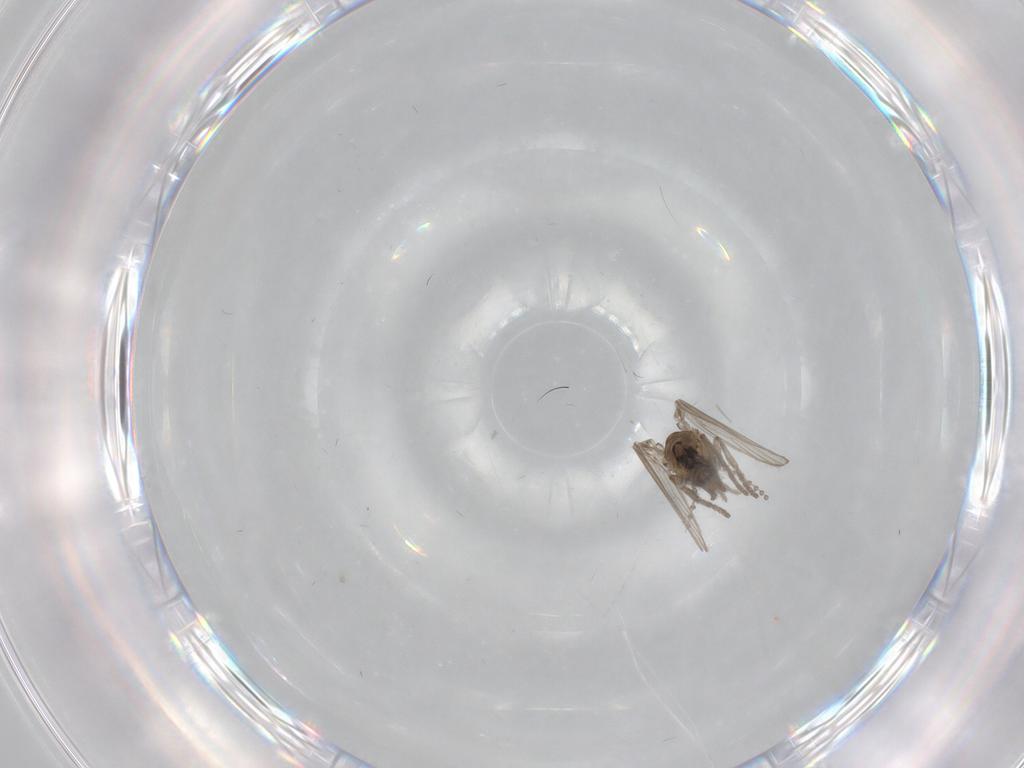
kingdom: Animalia
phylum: Arthropoda
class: Insecta
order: Diptera
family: Psychodidae
